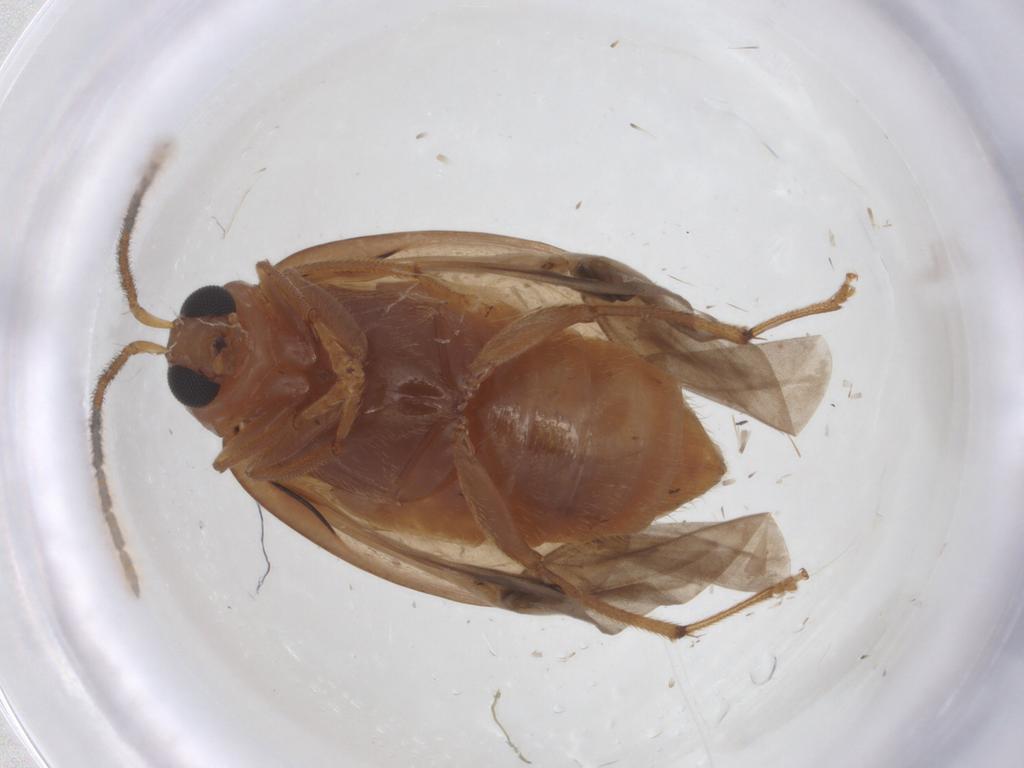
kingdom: Animalia
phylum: Arthropoda
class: Insecta
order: Coleoptera
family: Chrysomelidae
